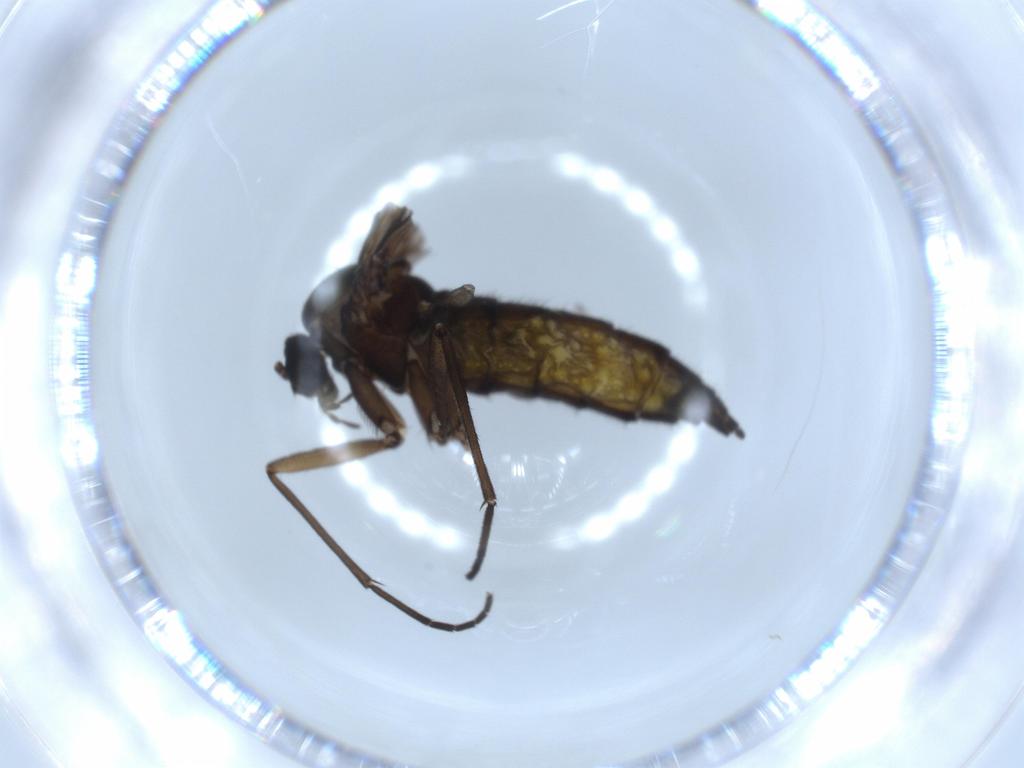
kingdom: Animalia
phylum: Arthropoda
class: Insecta
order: Diptera
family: Sciaridae
